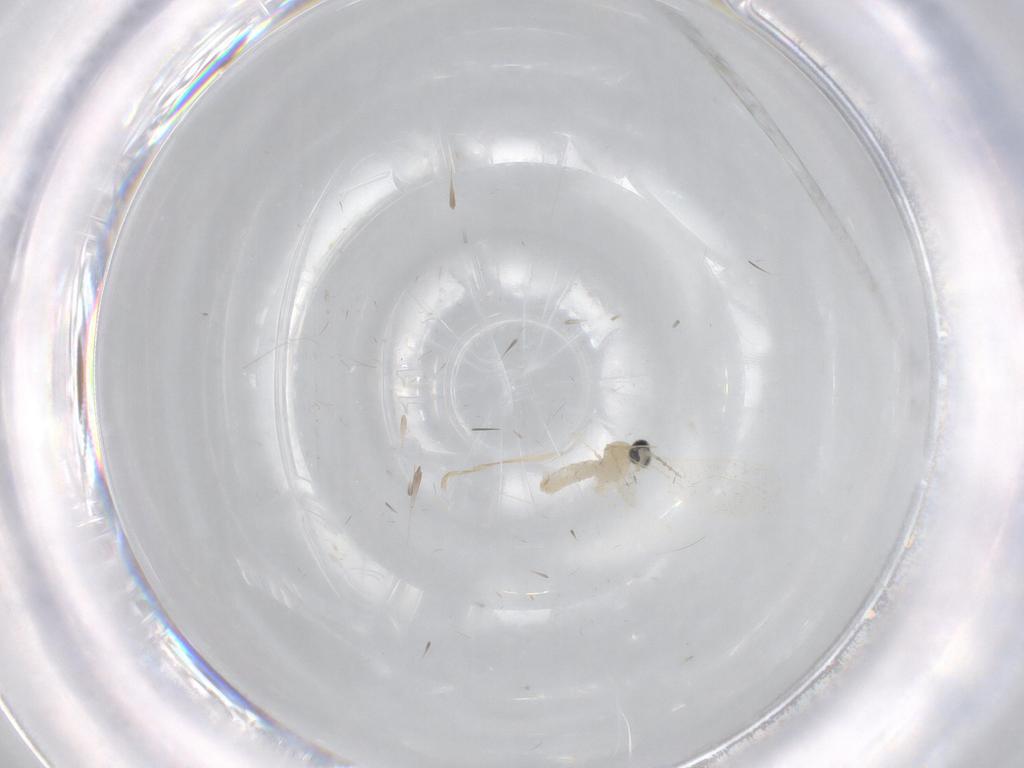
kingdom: Animalia
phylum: Arthropoda
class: Insecta
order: Diptera
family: Cecidomyiidae
